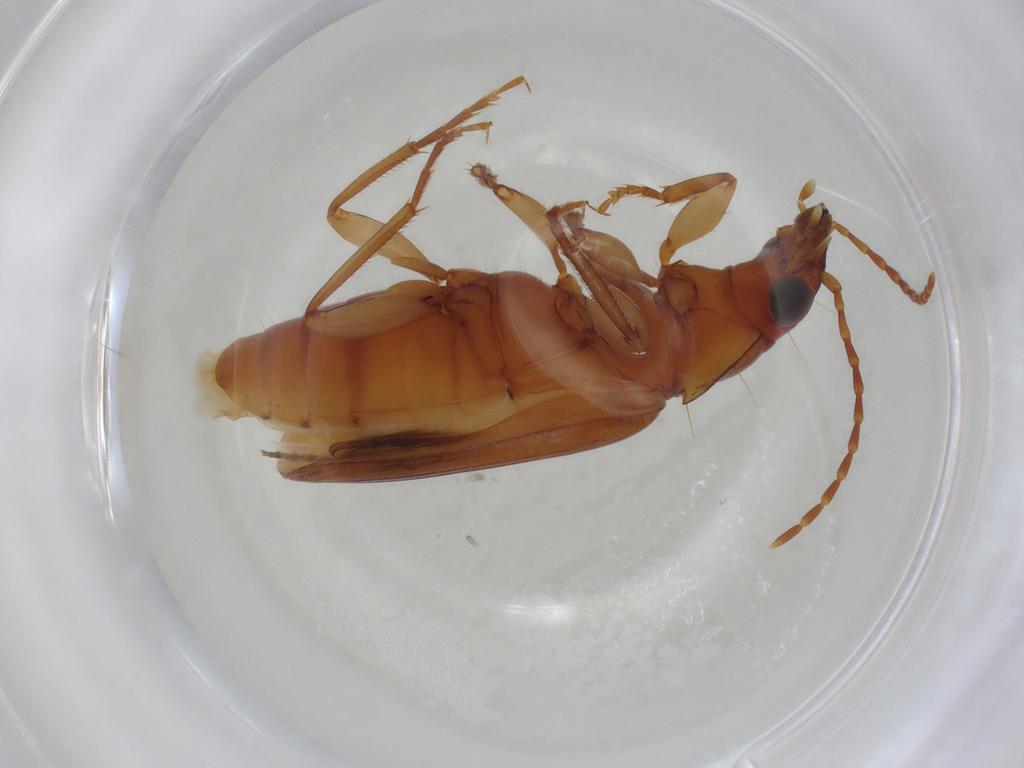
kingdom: Animalia
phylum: Arthropoda
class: Insecta
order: Coleoptera
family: Carabidae
